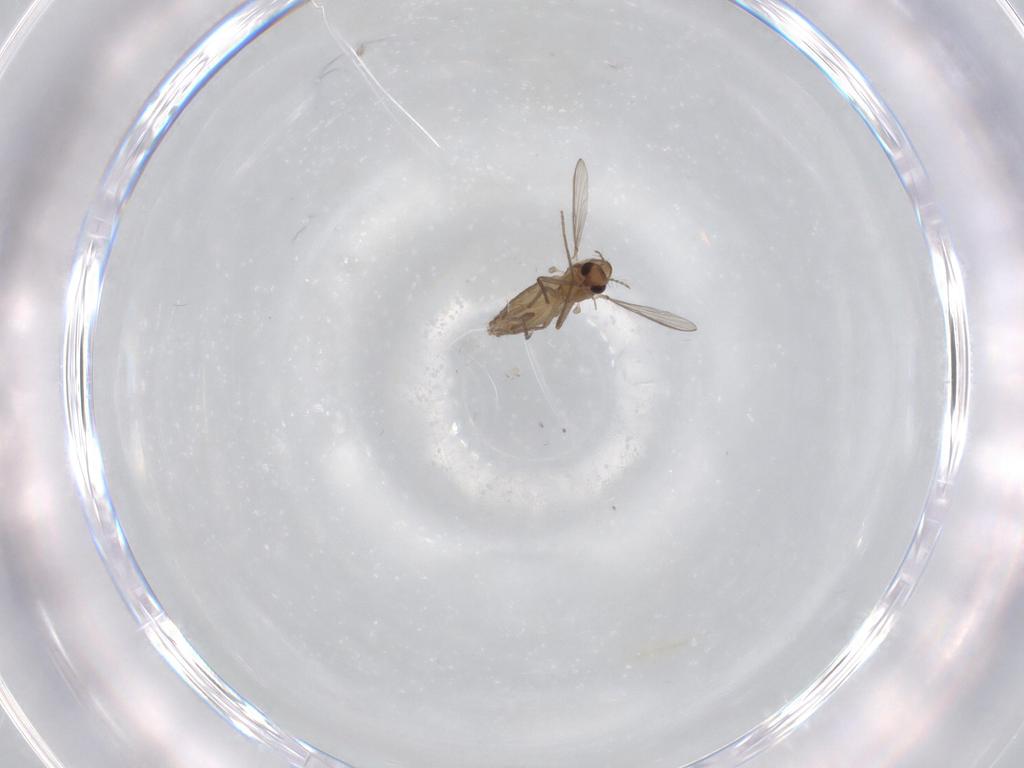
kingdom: Animalia
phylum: Arthropoda
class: Insecta
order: Diptera
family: Chironomidae
